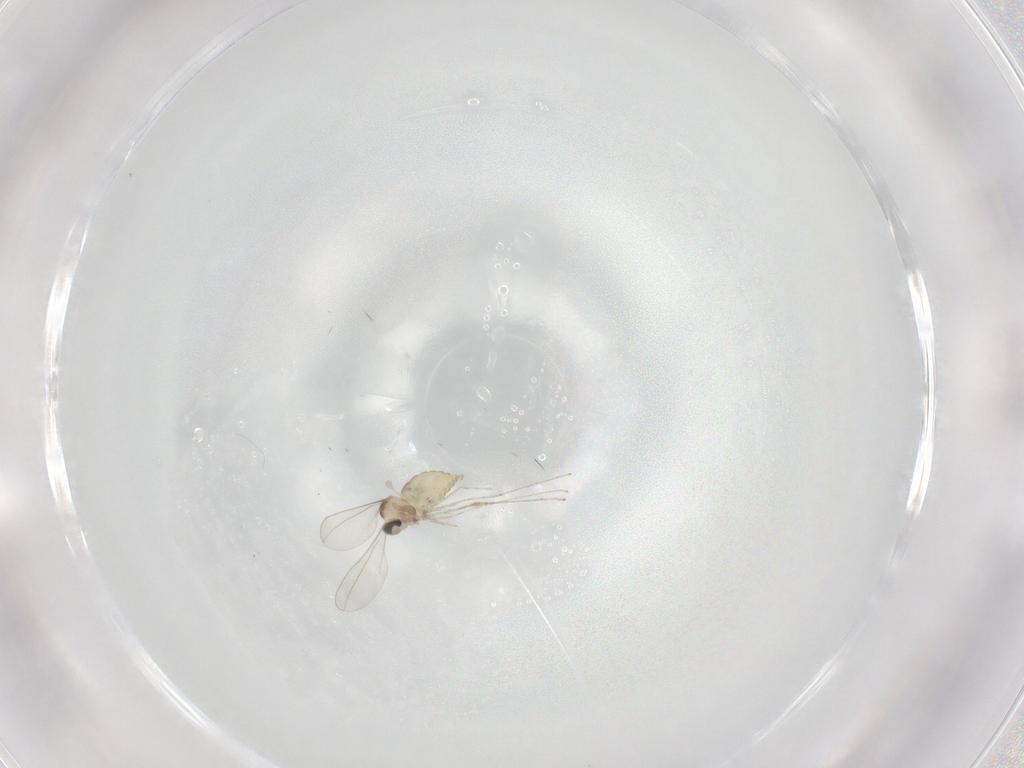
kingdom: Animalia
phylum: Arthropoda
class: Insecta
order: Diptera
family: Cecidomyiidae
